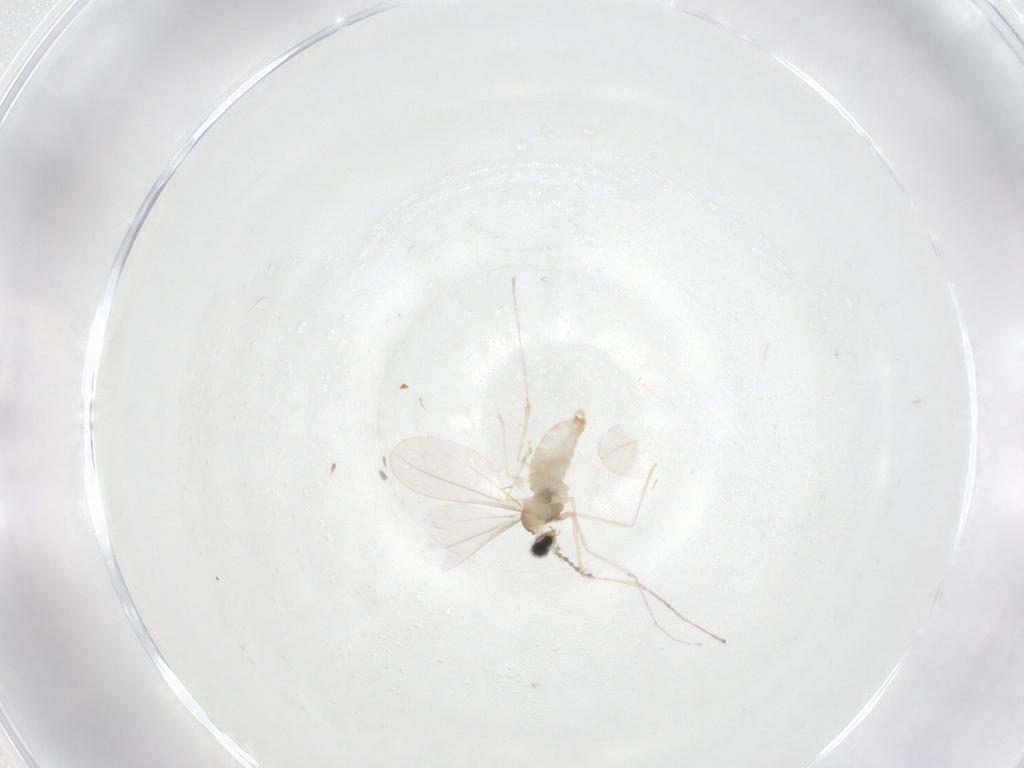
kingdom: Animalia
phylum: Arthropoda
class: Insecta
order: Diptera
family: Cecidomyiidae
